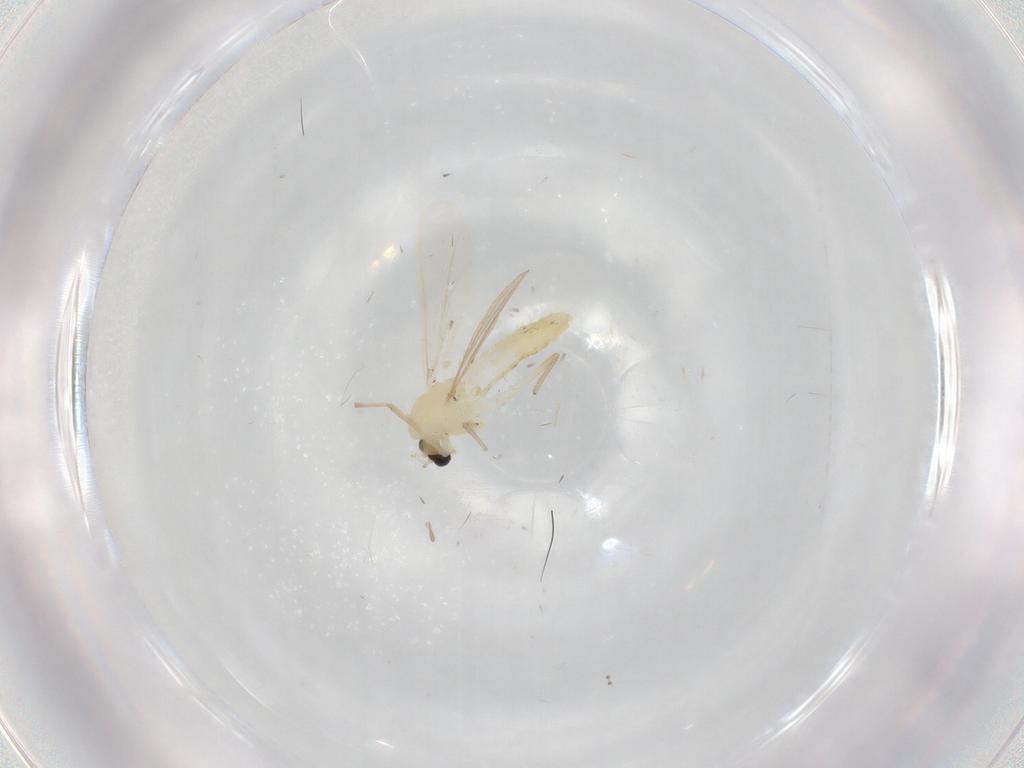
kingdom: Animalia
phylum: Arthropoda
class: Insecta
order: Diptera
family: Chironomidae
